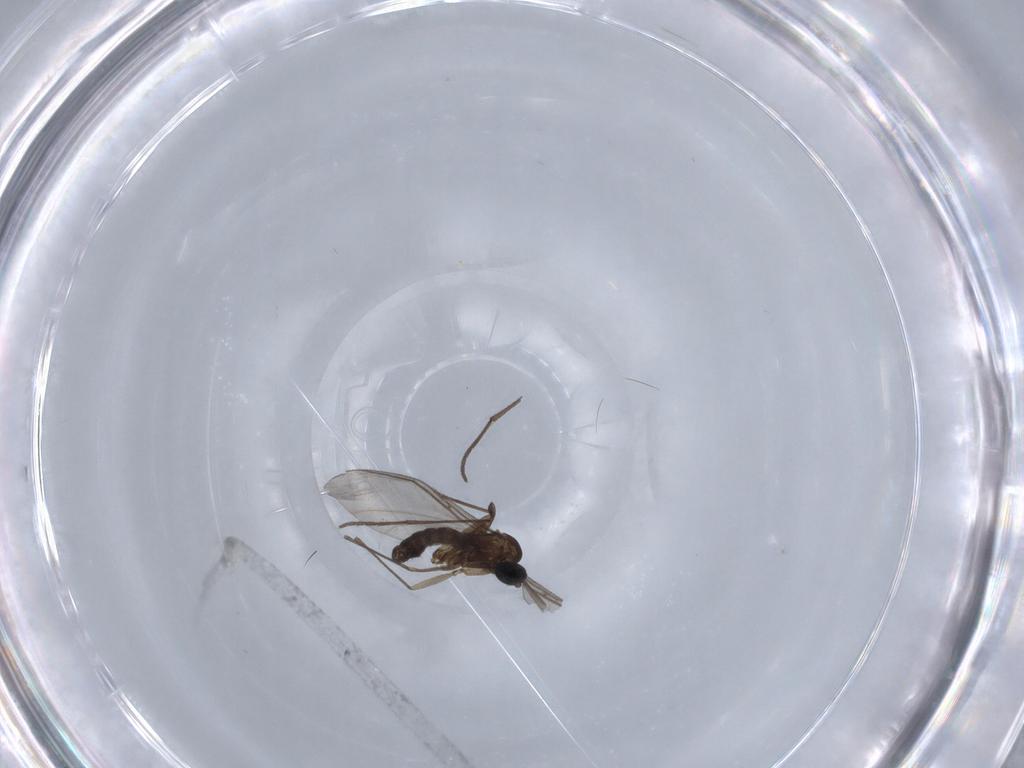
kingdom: Animalia
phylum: Arthropoda
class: Insecta
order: Diptera
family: Sciaridae
